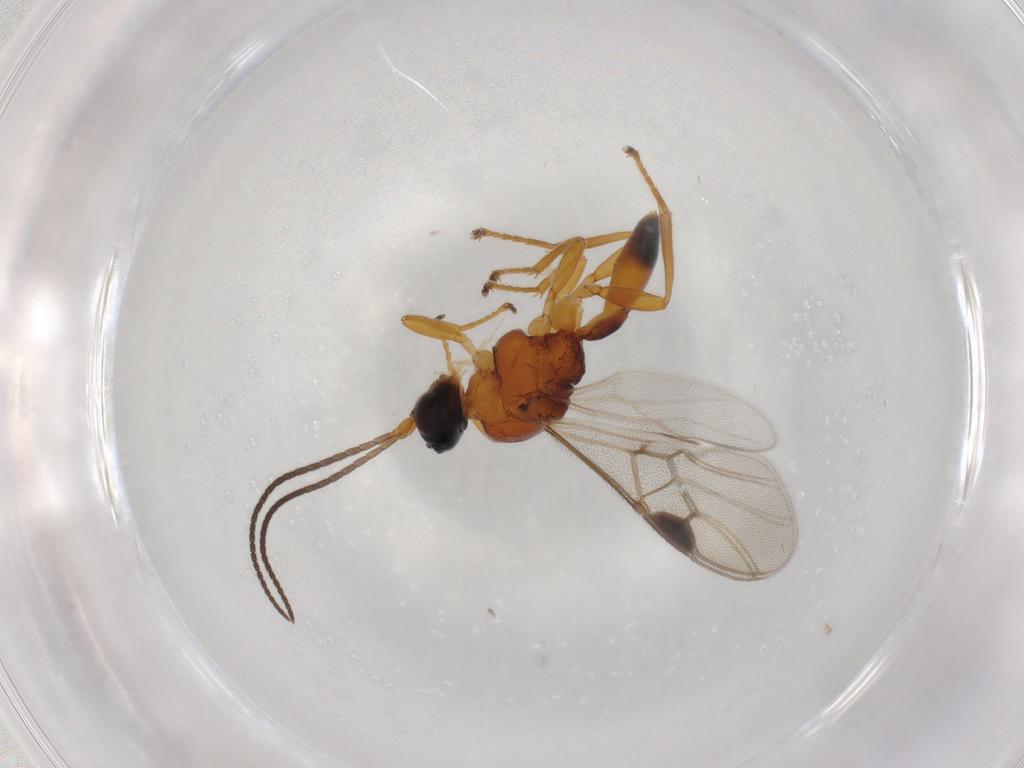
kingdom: Animalia
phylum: Arthropoda
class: Insecta
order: Hymenoptera
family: Braconidae
